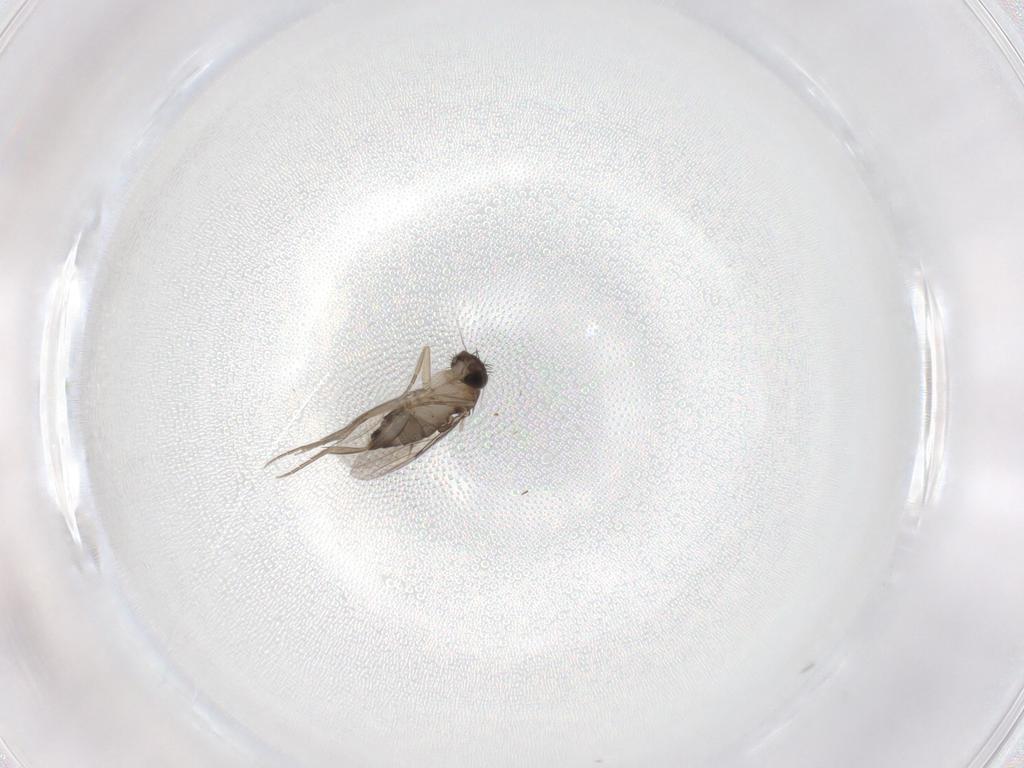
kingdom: Animalia
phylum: Arthropoda
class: Insecta
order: Diptera
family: Phoridae
